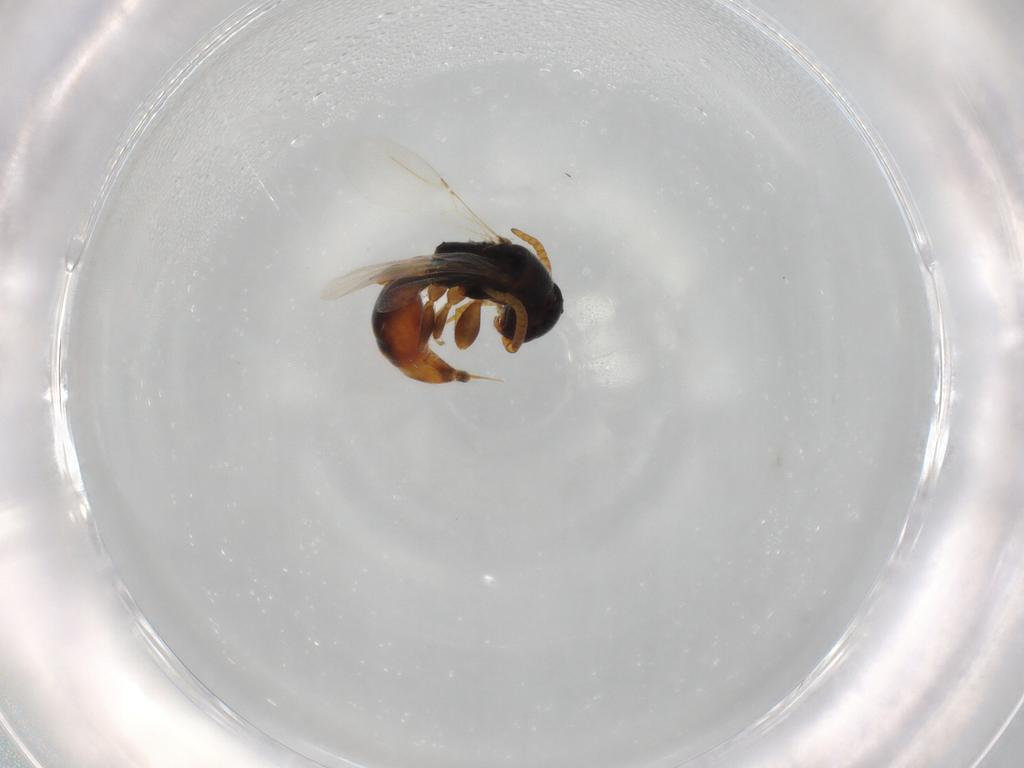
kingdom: Animalia
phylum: Arthropoda
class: Insecta
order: Hymenoptera
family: Bethylidae
